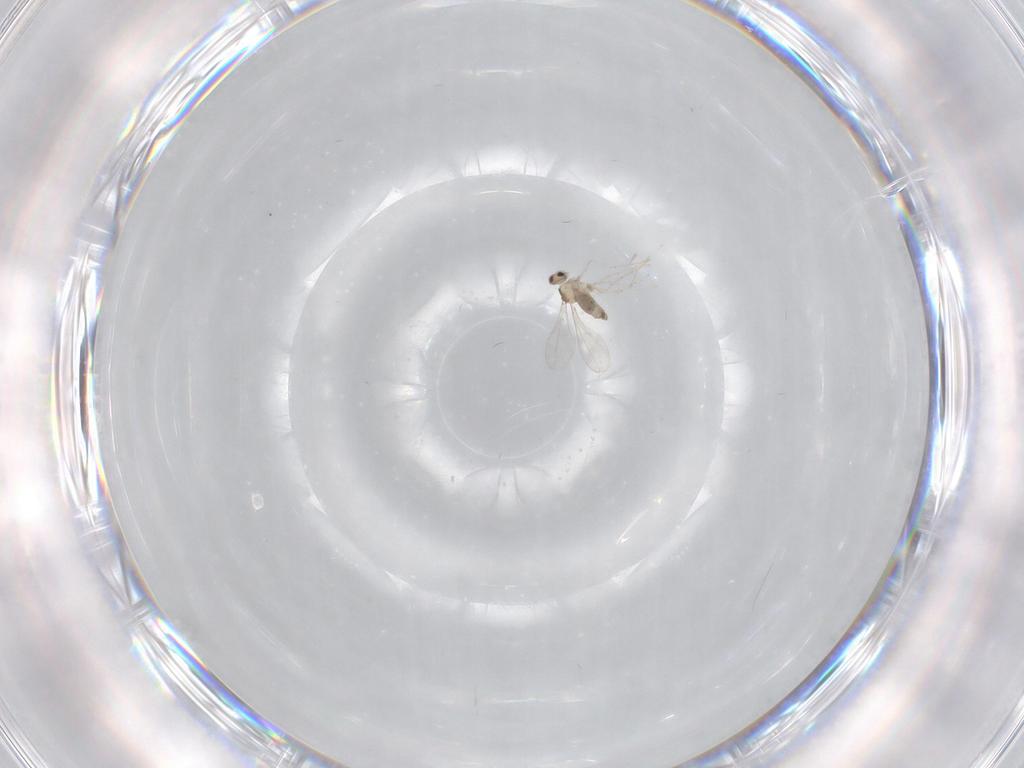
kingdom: Animalia
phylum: Arthropoda
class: Insecta
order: Diptera
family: Cecidomyiidae
